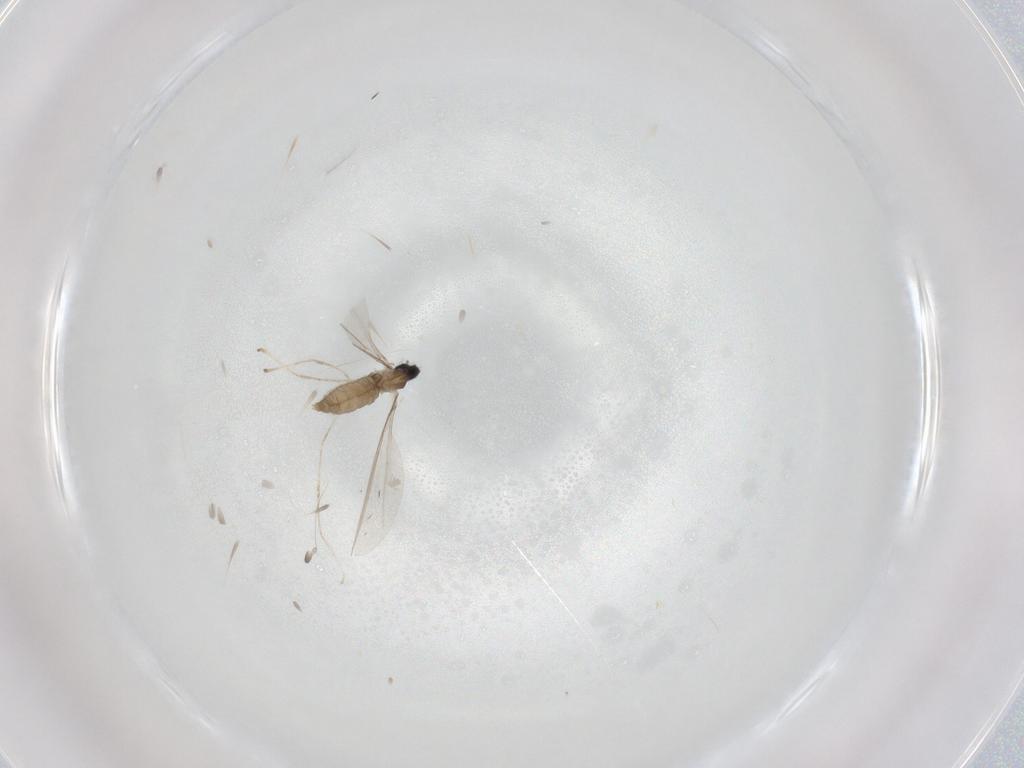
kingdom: Animalia
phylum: Arthropoda
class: Insecta
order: Diptera
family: Cecidomyiidae
